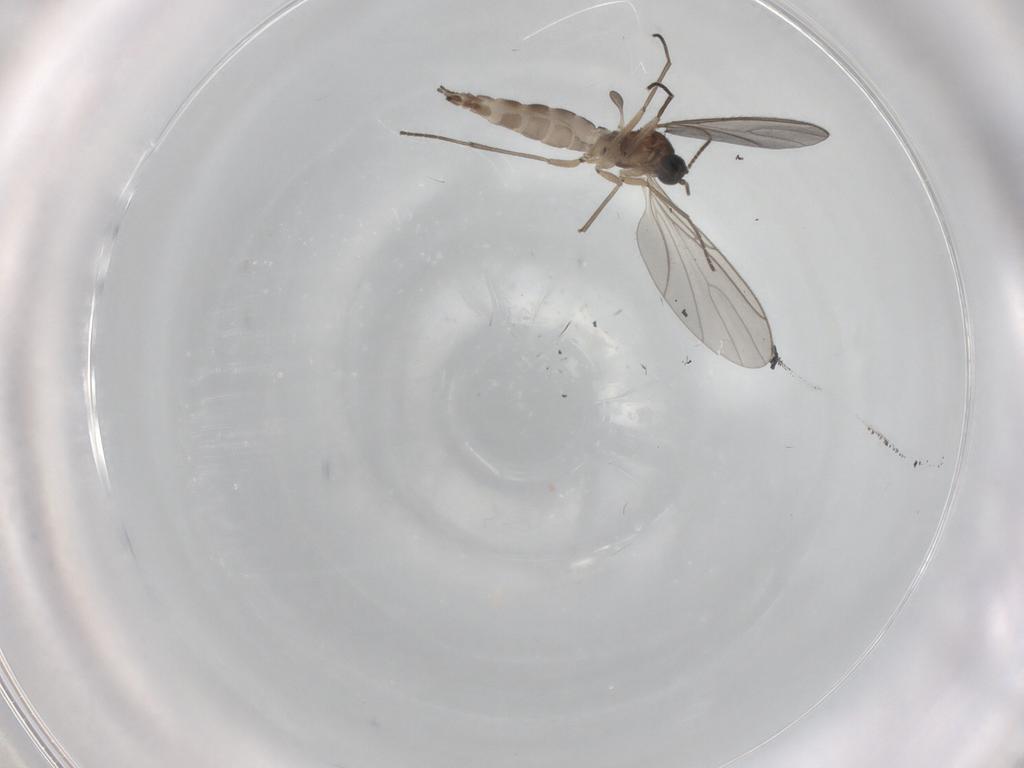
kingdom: Animalia
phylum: Arthropoda
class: Insecta
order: Diptera
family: Sciaridae
